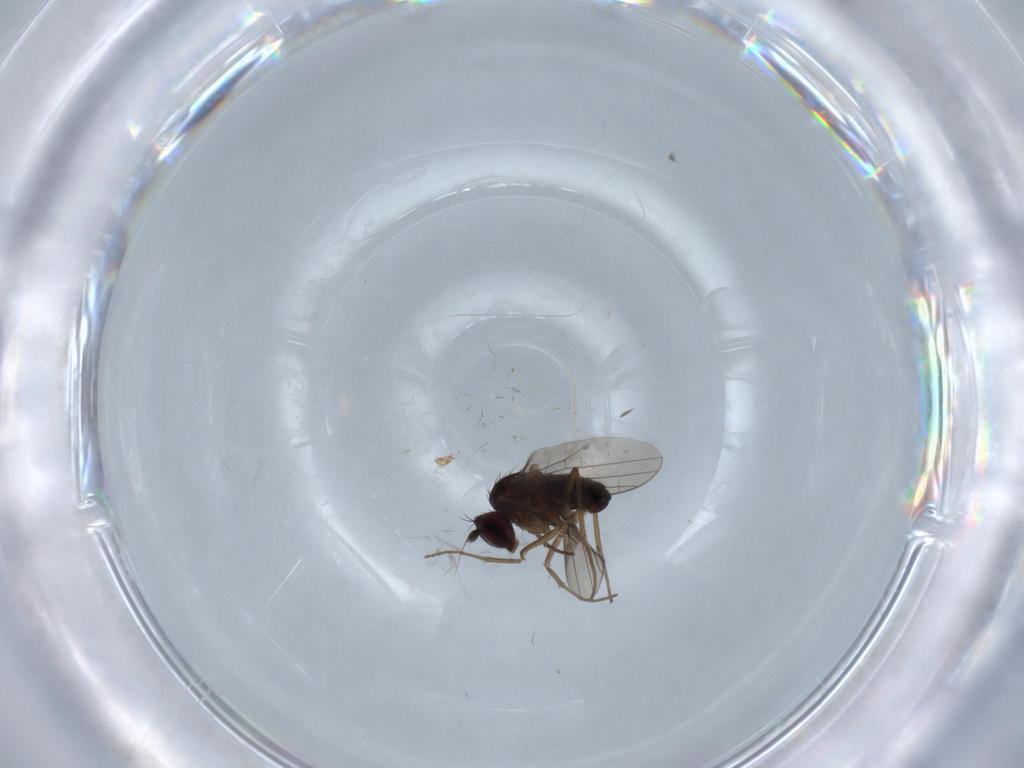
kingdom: Animalia
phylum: Arthropoda
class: Insecta
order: Diptera
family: Dolichopodidae
